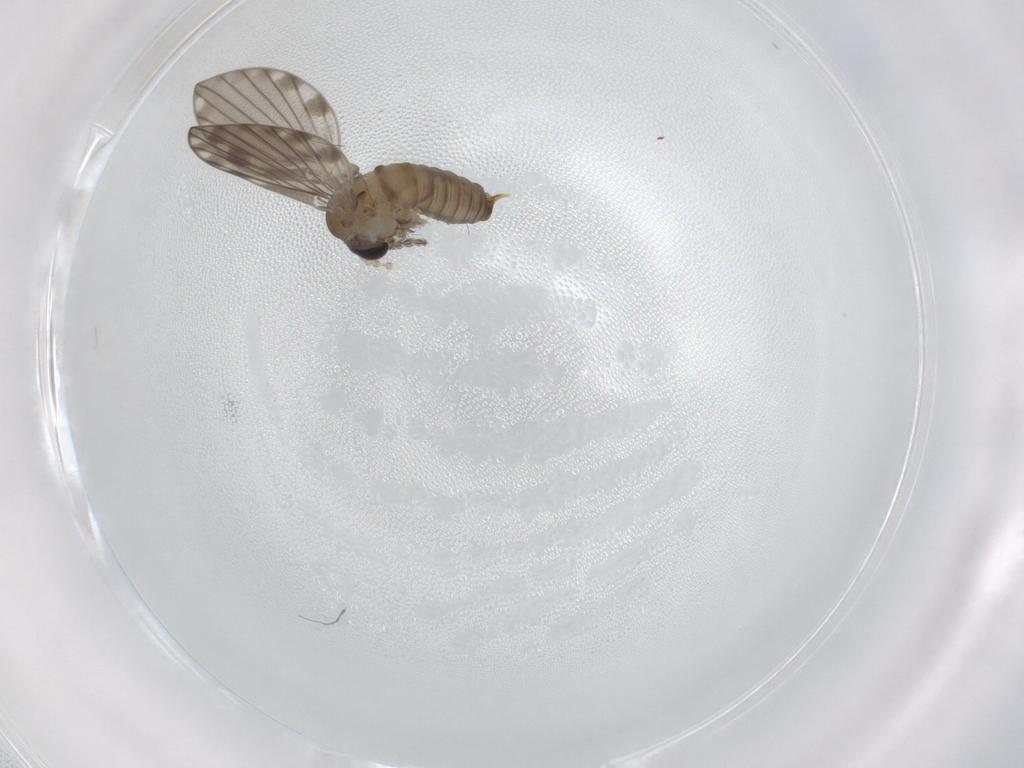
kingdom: Animalia
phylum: Arthropoda
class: Insecta
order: Diptera
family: Psychodidae
